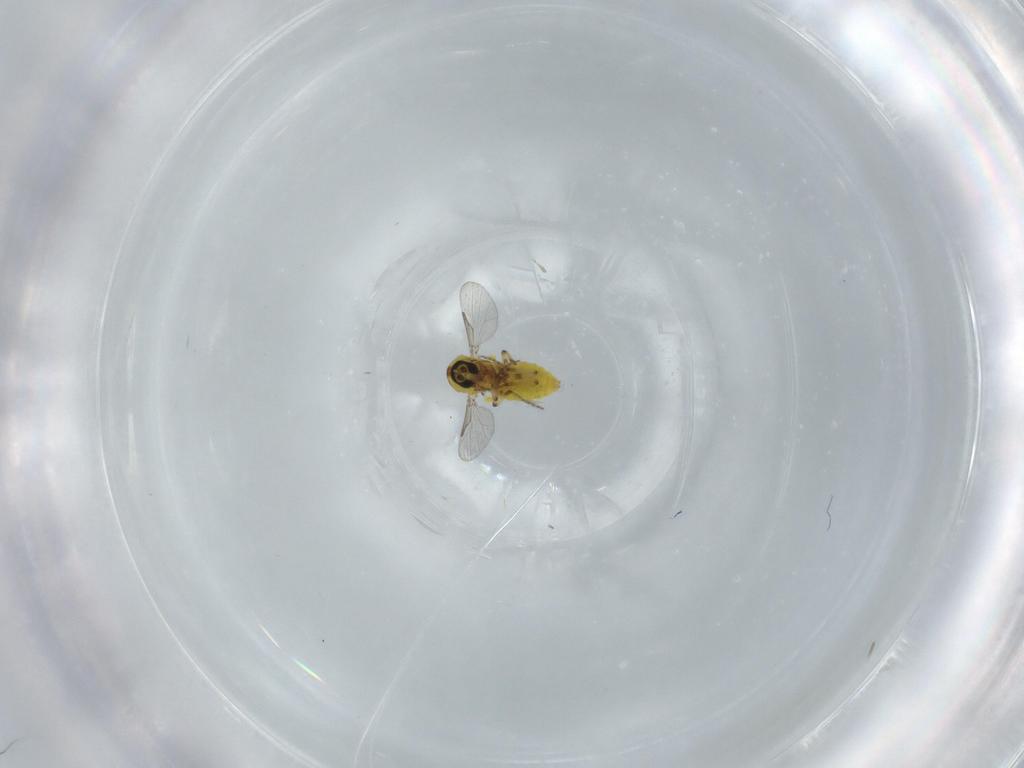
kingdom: Animalia
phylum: Arthropoda
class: Insecta
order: Diptera
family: Ceratopogonidae
